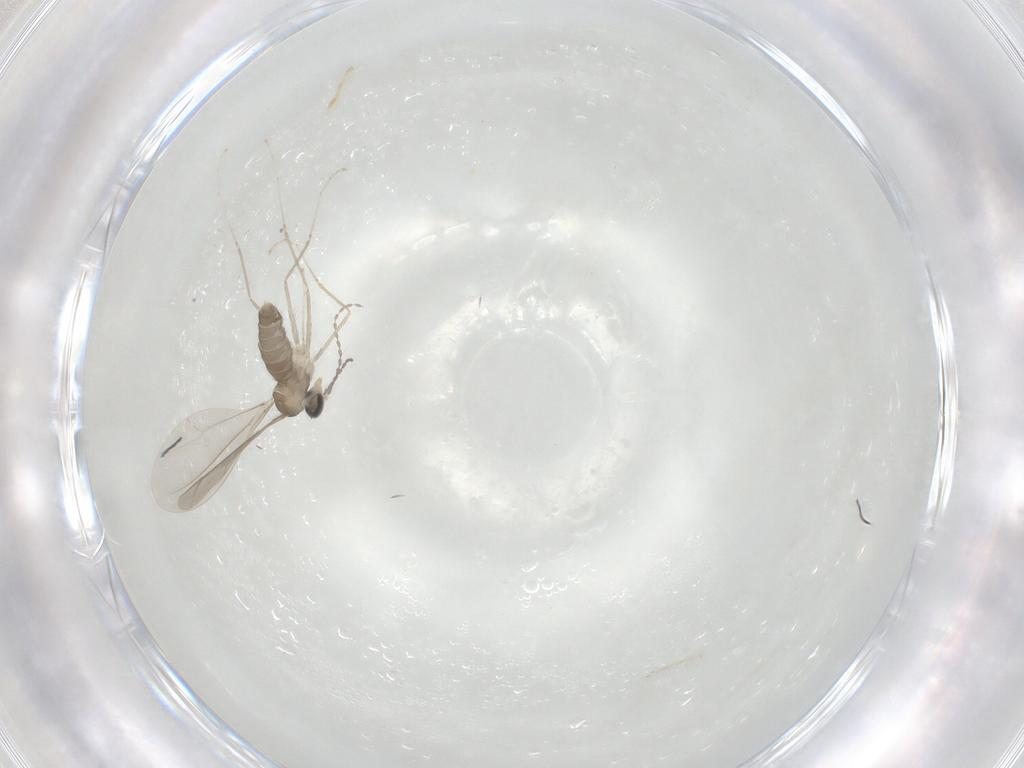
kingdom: Animalia
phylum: Arthropoda
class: Insecta
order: Diptera
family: Cecidomyiidae
